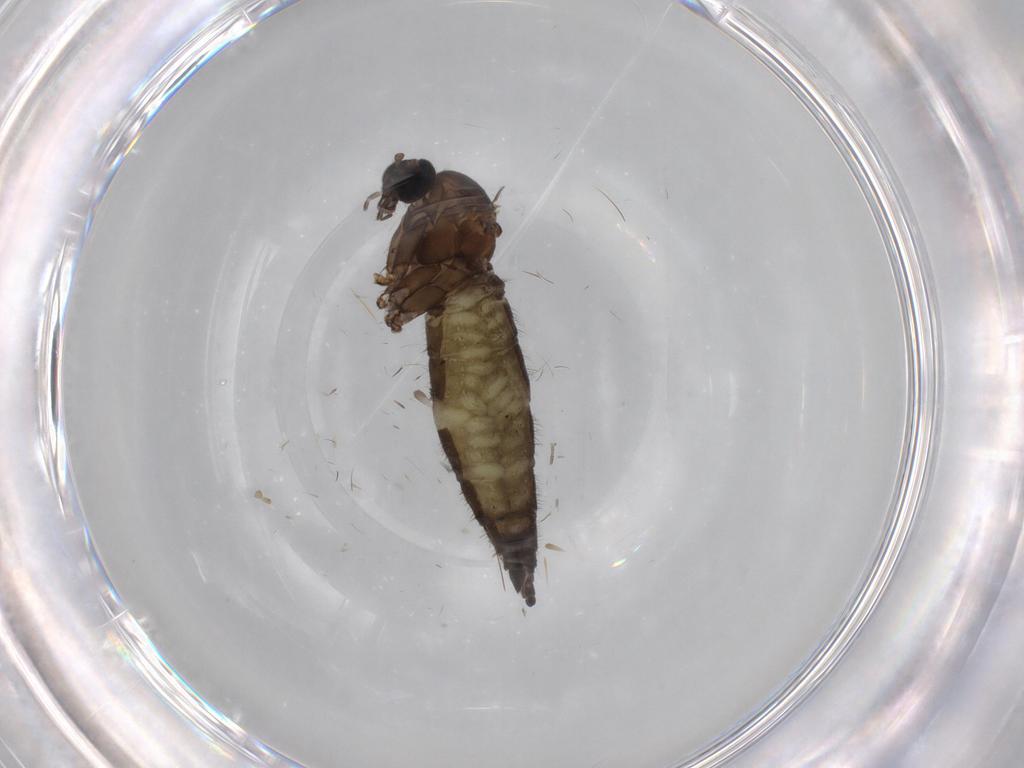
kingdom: Animalia
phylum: Arthropoda
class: Insecta
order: Diptera
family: Sciaridae
